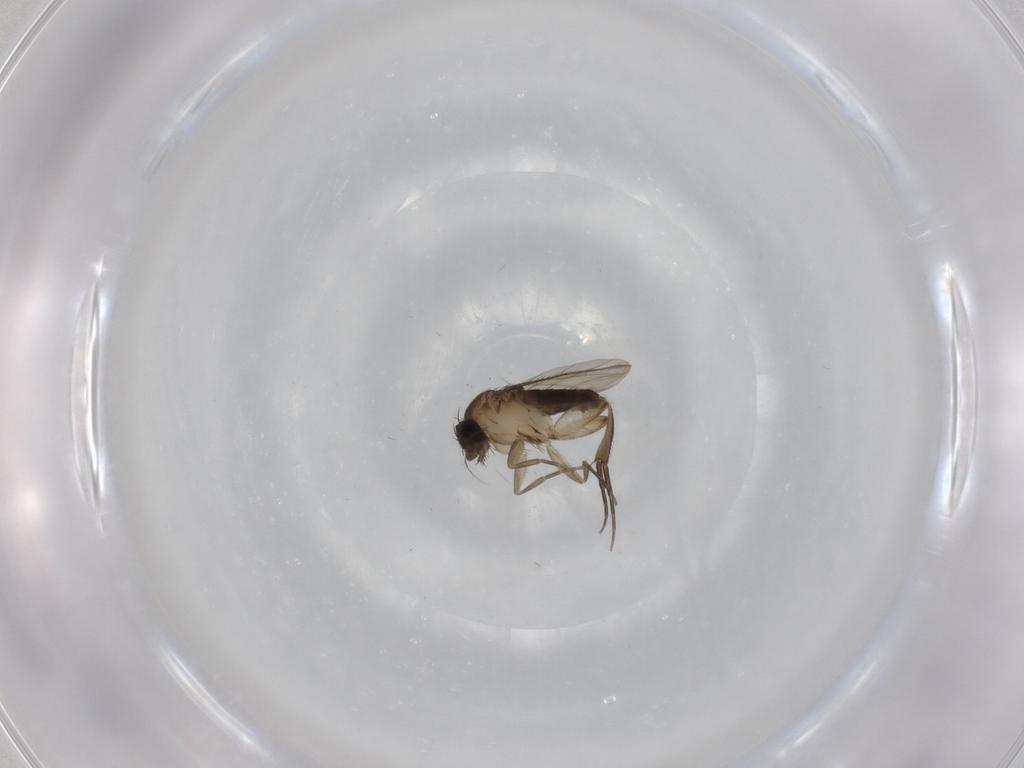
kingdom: Animalia
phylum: Arthropoda
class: Insecta
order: Diptera
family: Phoridae
